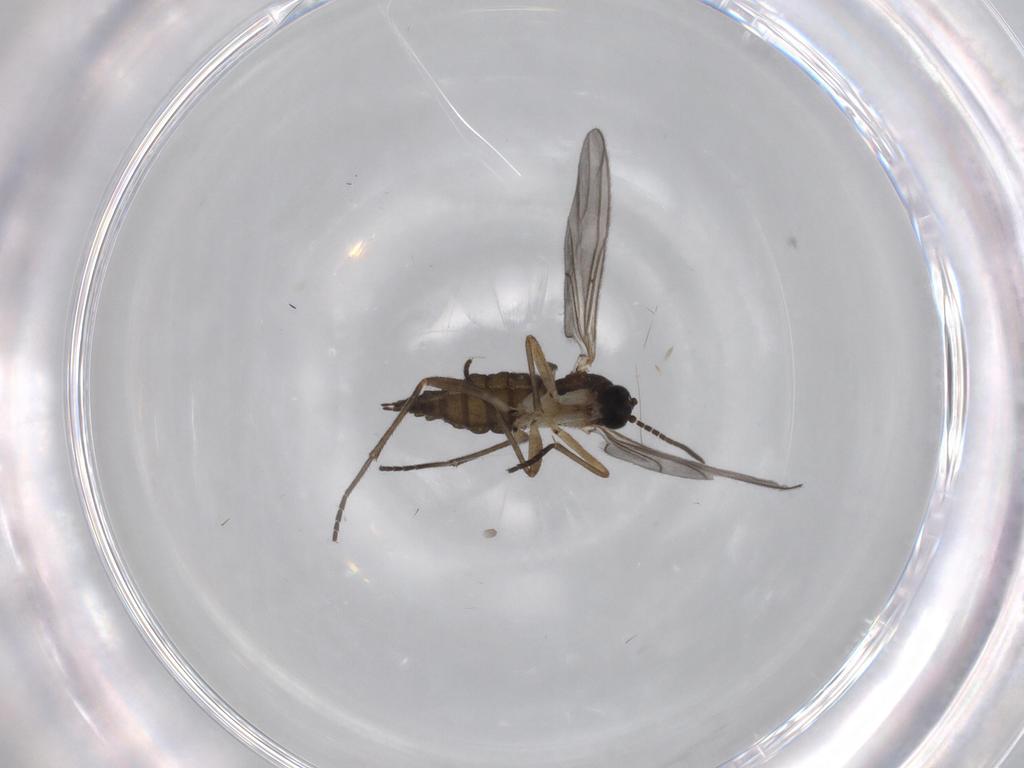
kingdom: Animalia
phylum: Arthropoda
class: Insecta
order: Diptera
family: Sciaridae
